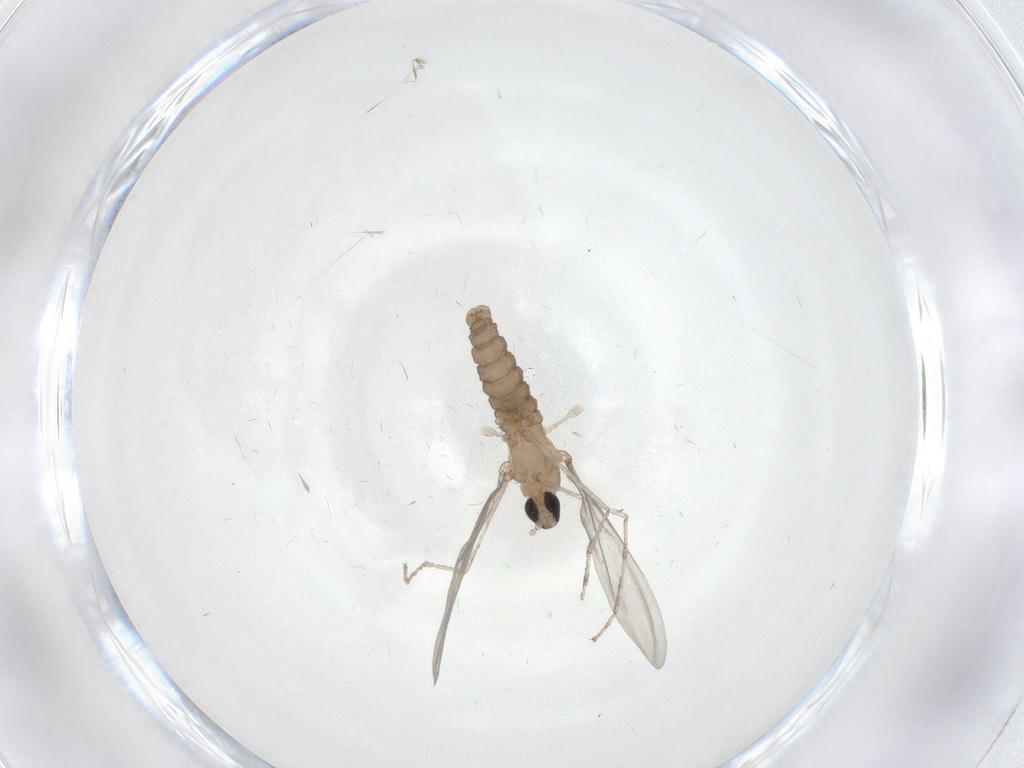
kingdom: Animalia
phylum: Arthropoda
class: Insecta
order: Diptera
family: Cecidomyiidae
